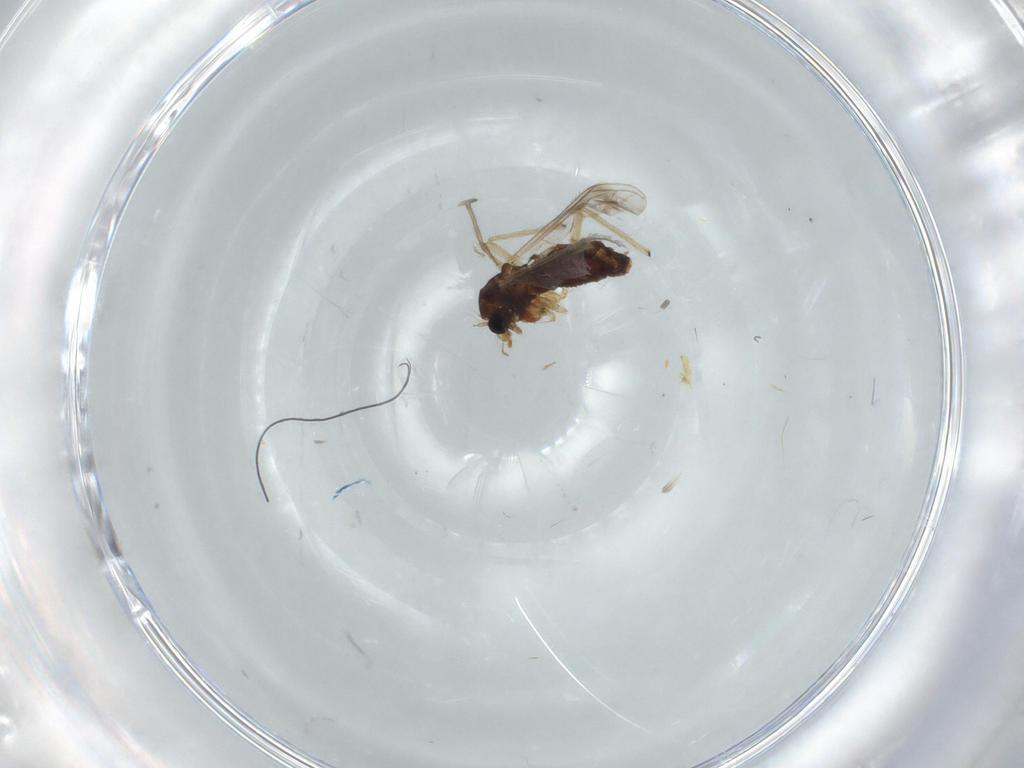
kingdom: Animalia
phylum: Arthropoda
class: Insecta
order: Diptera
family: Chironomidae
